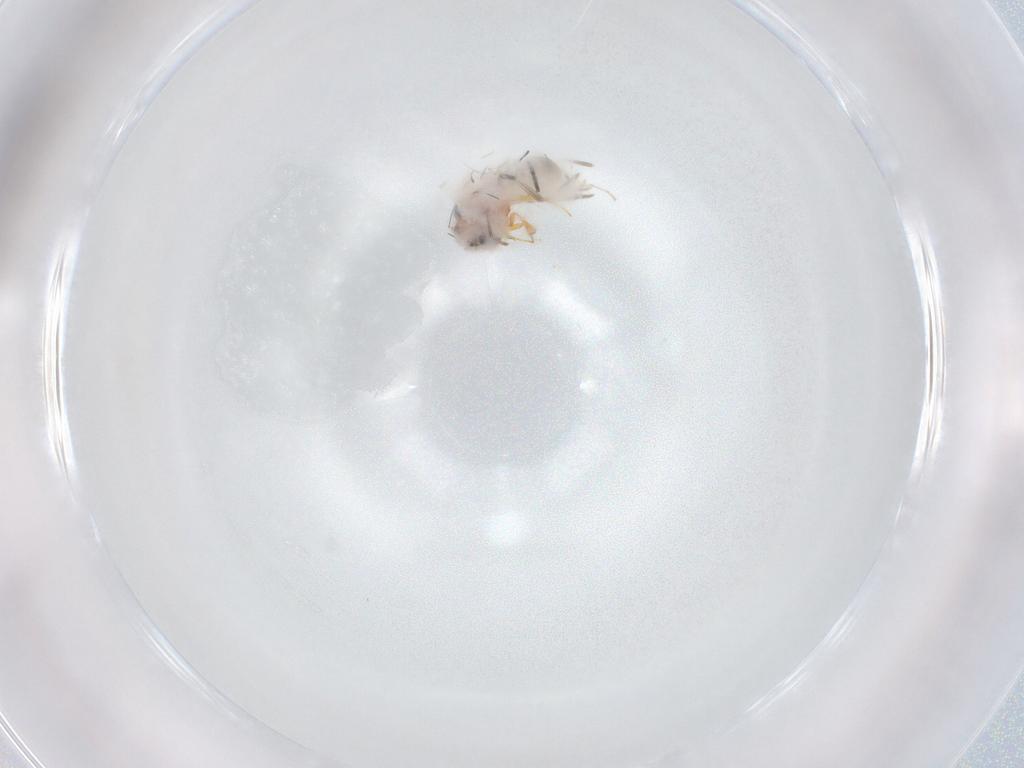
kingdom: Animalia
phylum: Arthropoda
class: Insecta
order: Hymenoptera
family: Scelionidae
